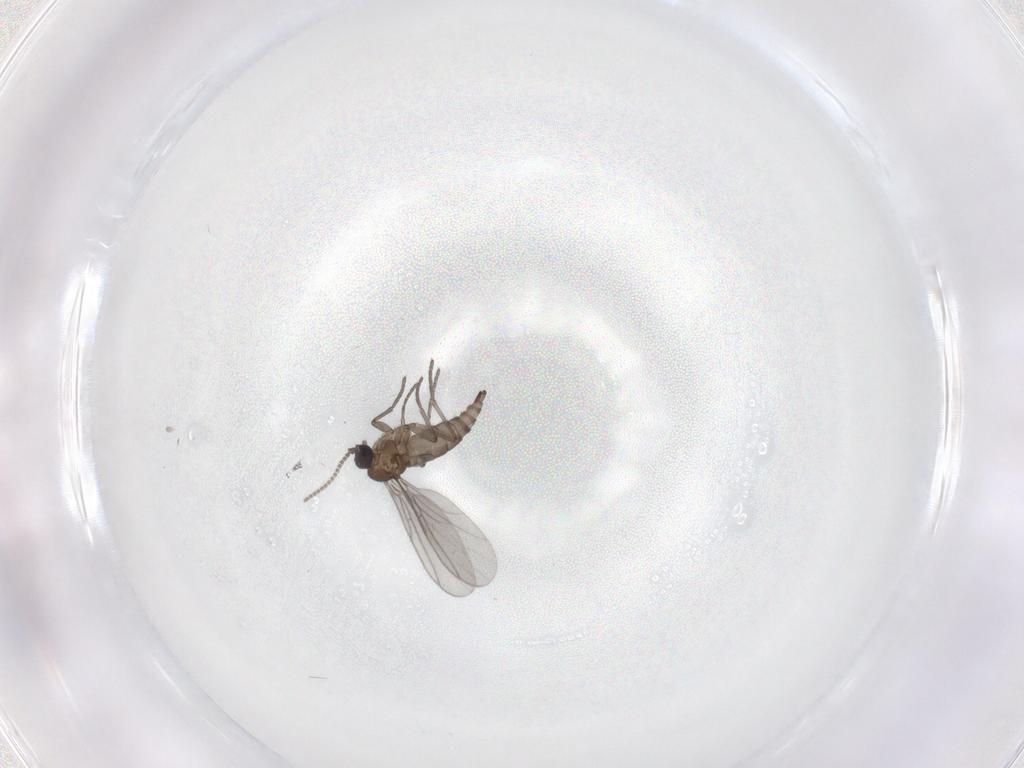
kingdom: Animalia
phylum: Arthropoda
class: Insecta
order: Diptera
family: Sciaridae
